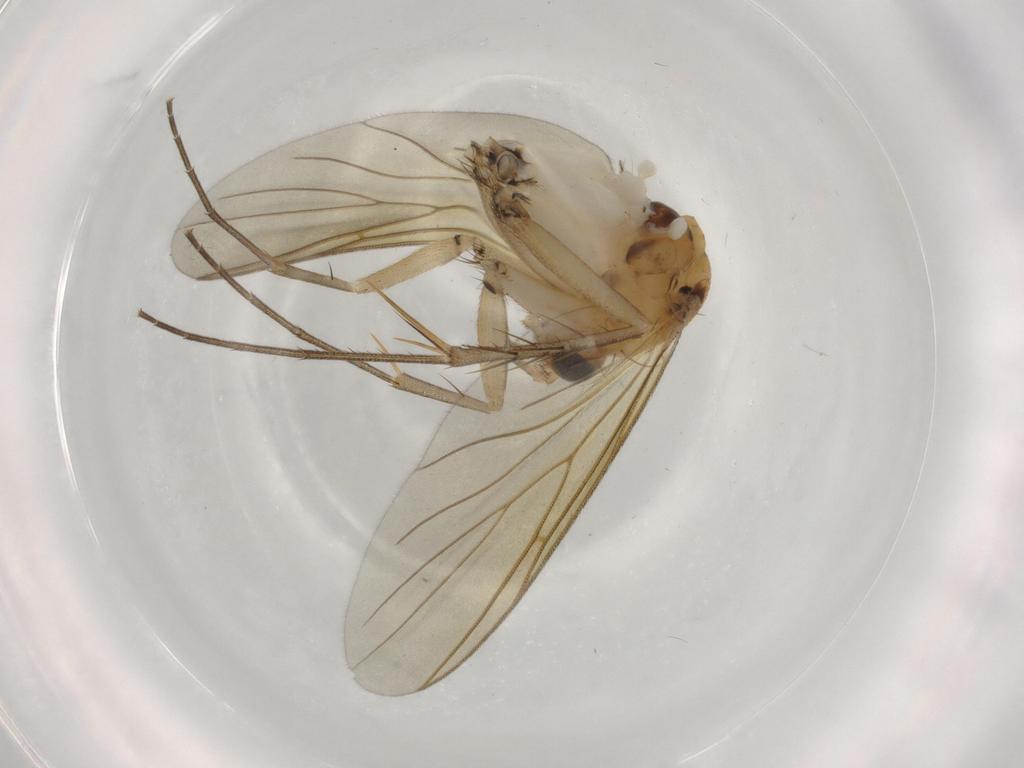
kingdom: Animalia
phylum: Arthropoda
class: Insecta
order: Diptera
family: Mycetophilidae
